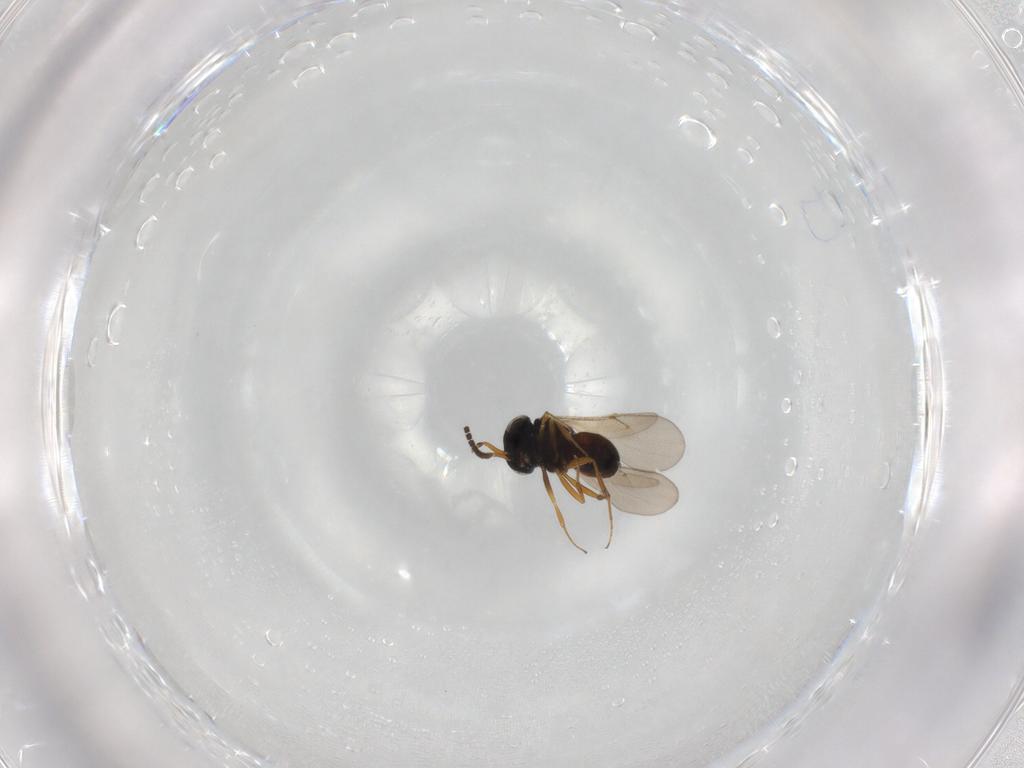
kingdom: Animalia
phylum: Arthropoda
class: Insecta
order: Hymenoptera
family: Scelionidae
